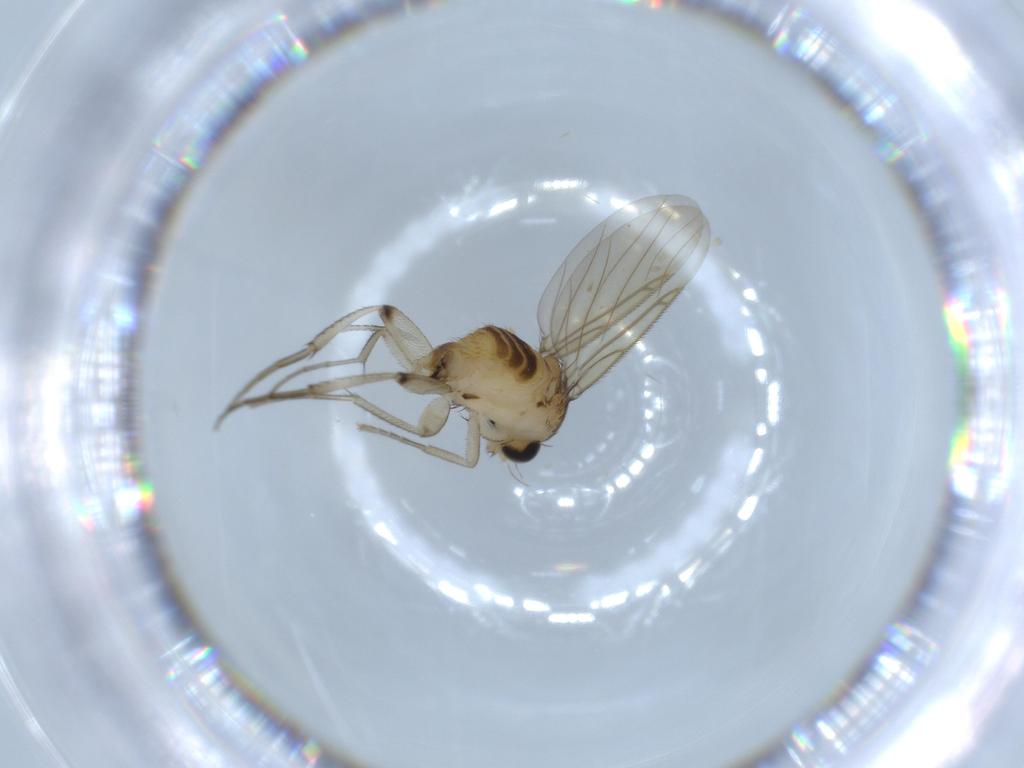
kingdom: Animalia
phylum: Arthropoda
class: Insecta
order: Diptera
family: Phoridae
